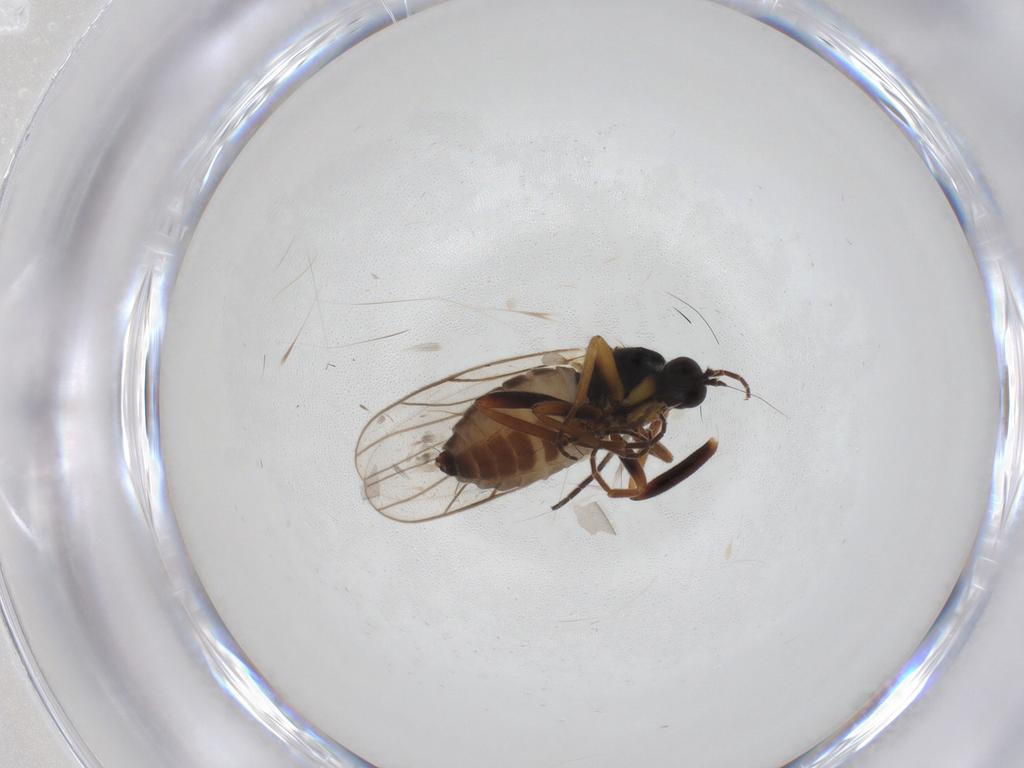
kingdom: Animalia
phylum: Arthropoda
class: Insecta
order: Diptera
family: Hybotidae
